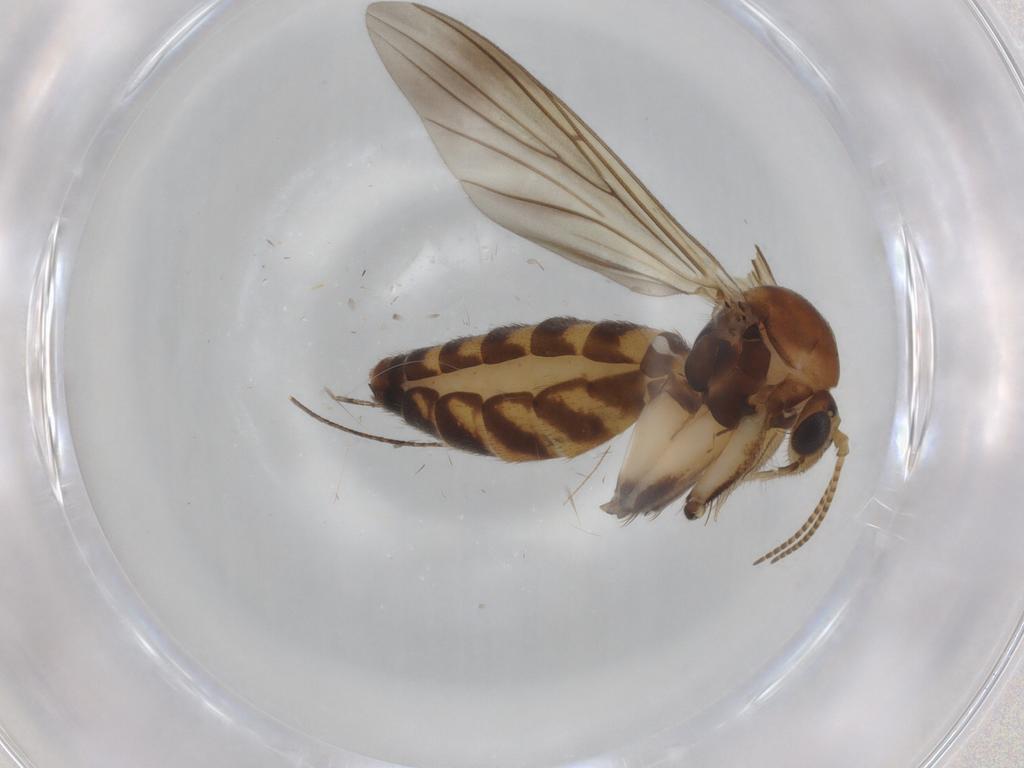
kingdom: Animalia
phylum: Arthropoda
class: Insecta
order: Diptera
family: Mycetophilidae
